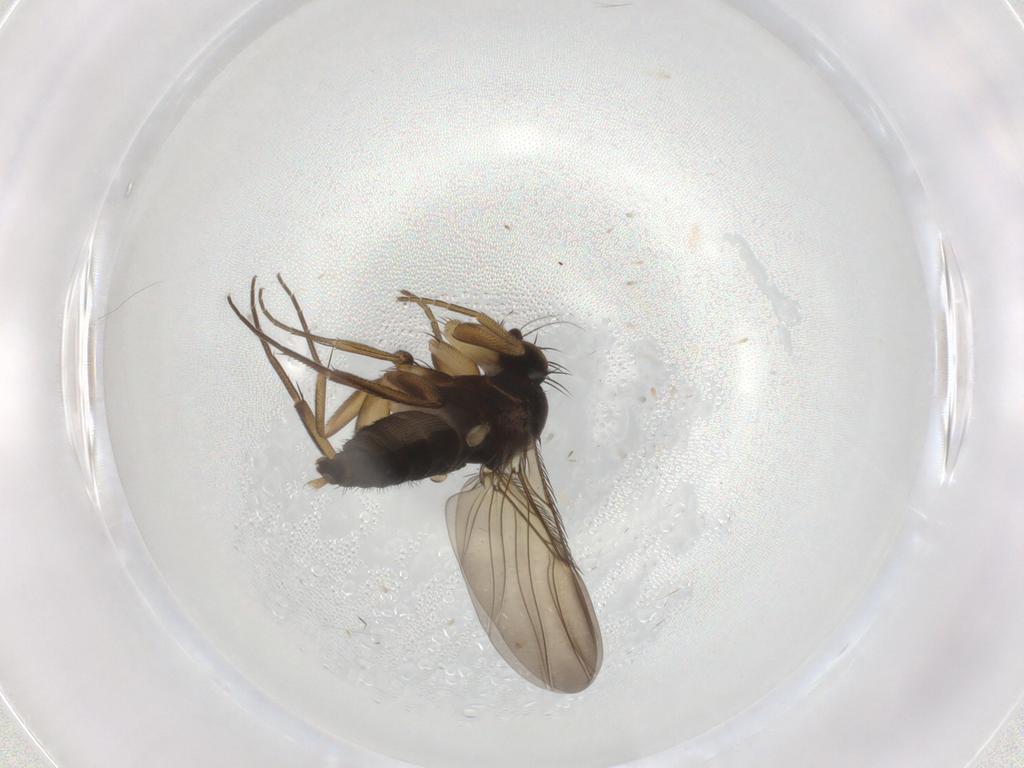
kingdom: Animalia
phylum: Arthropoda
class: Insecta
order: Diptera
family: Phoridae
